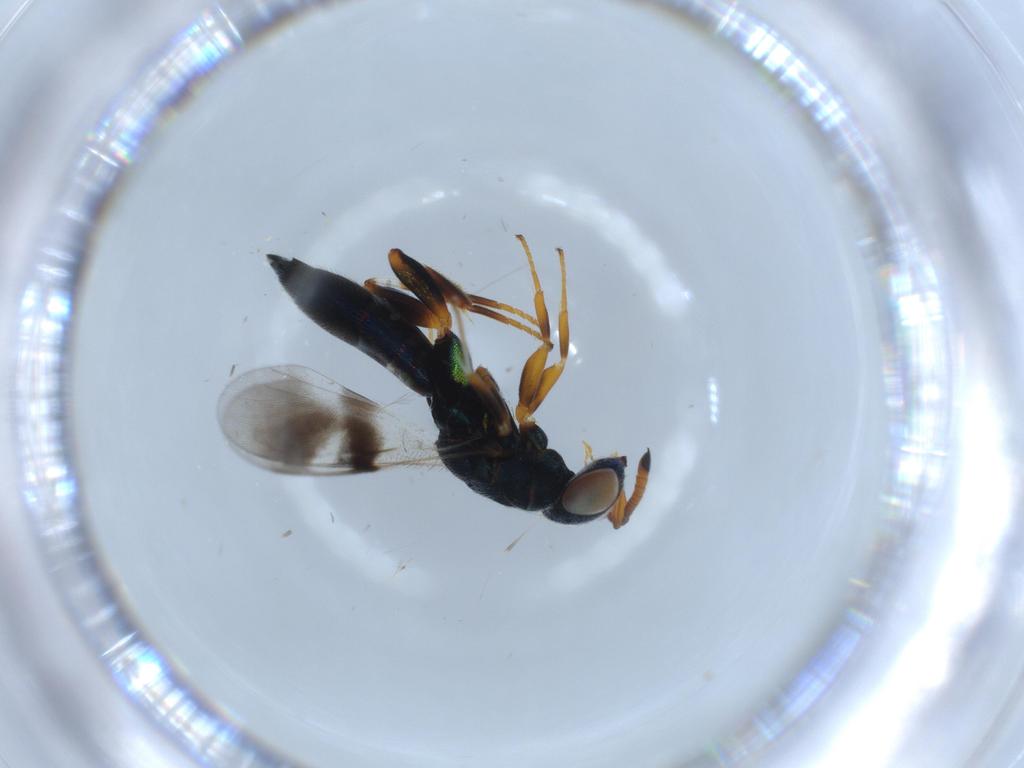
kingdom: Animalia
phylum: Arthropoda
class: Insecta
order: Hymenoptera
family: Cleonyminae
